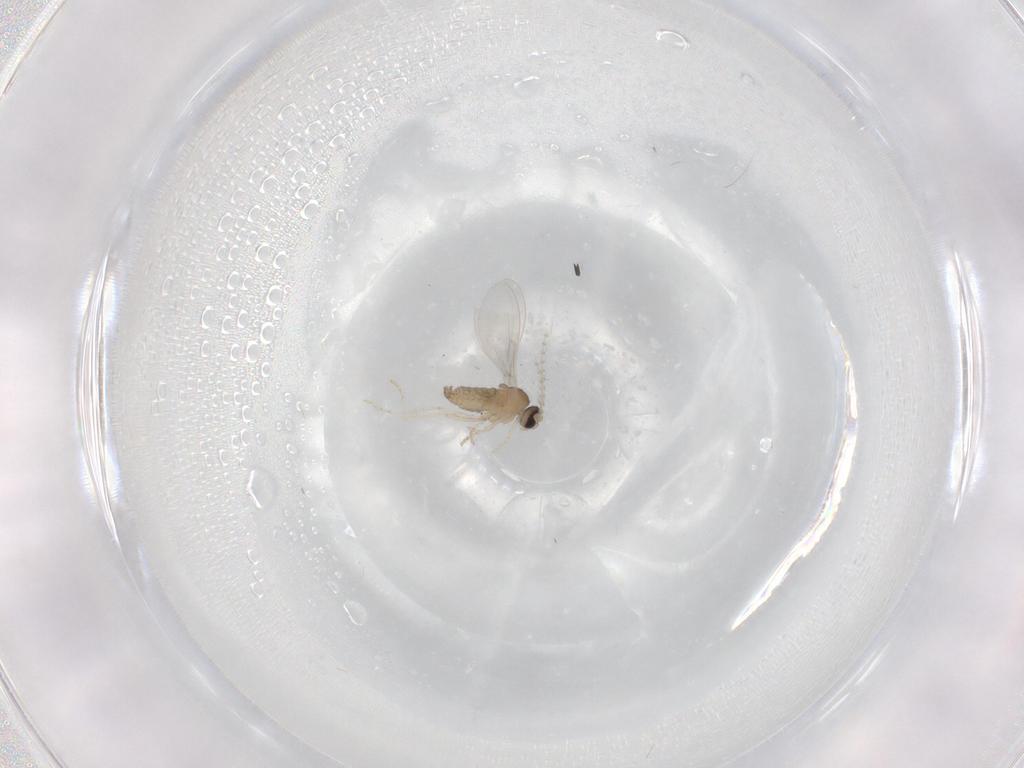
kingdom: Animalia
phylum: Arthropoda
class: Insecta
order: Diptera
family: Cecidomyiidae
